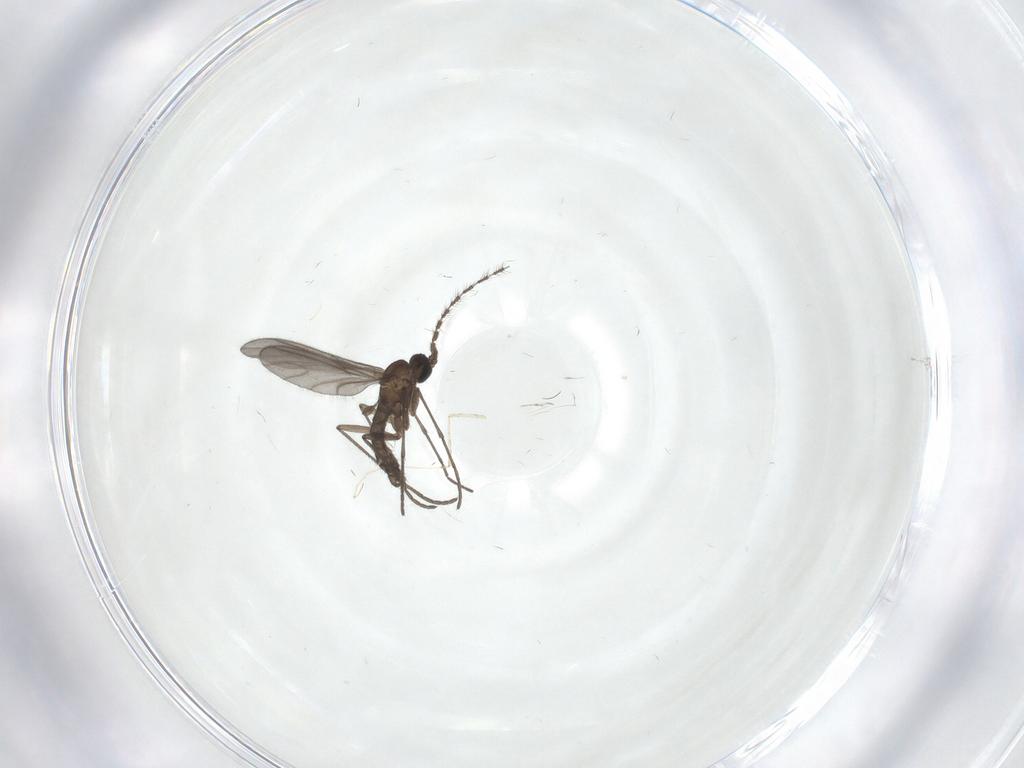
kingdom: Animalia
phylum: Arthropoda
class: Insecta
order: Diptera
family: Sciaridae
